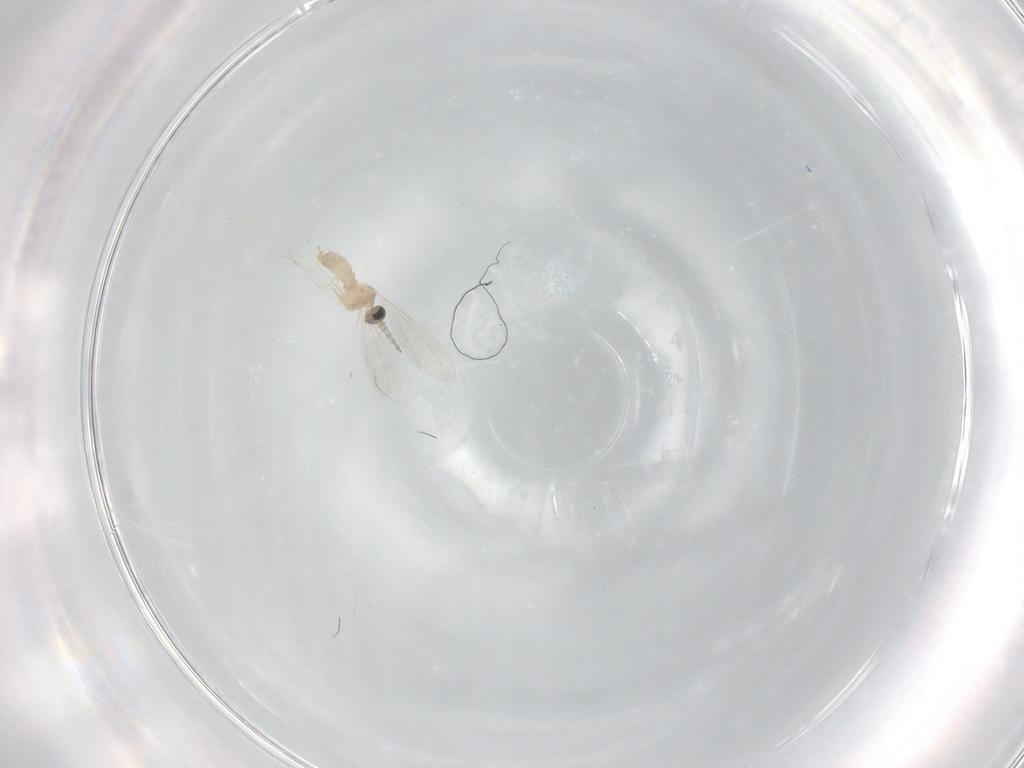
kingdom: Animalia
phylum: Arthropoda
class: Insecta
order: Diptera
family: Cecidomyiidae
